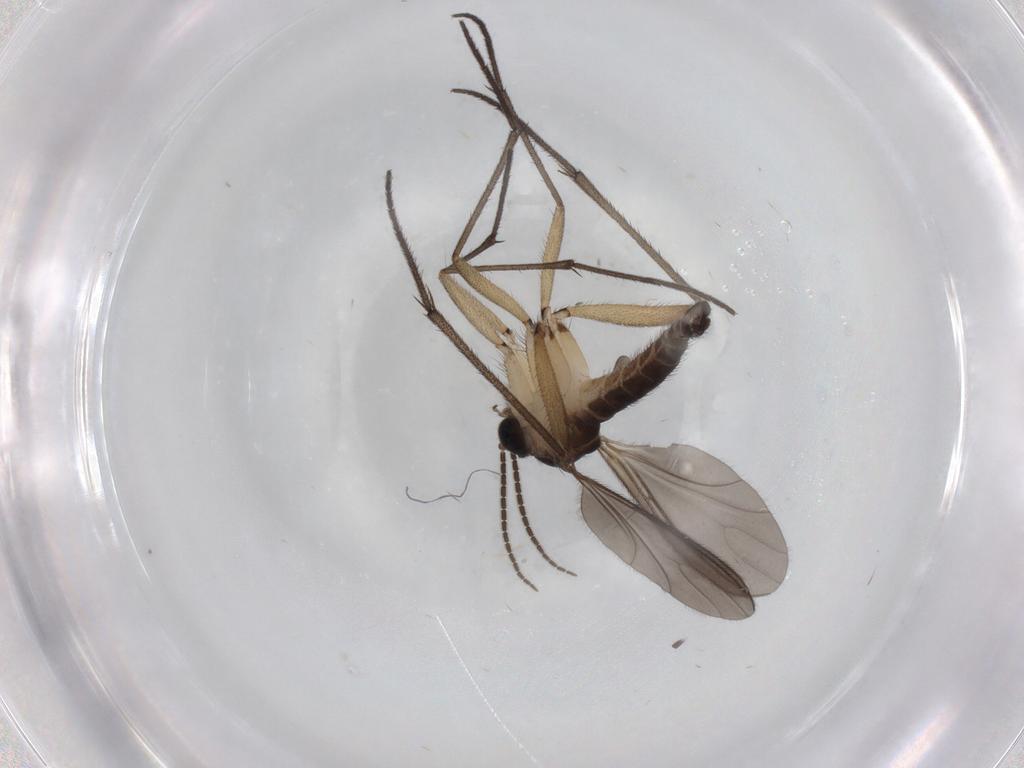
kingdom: Animalia
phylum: Arthropoda
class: Insecta
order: Diptera
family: Sciaridae
